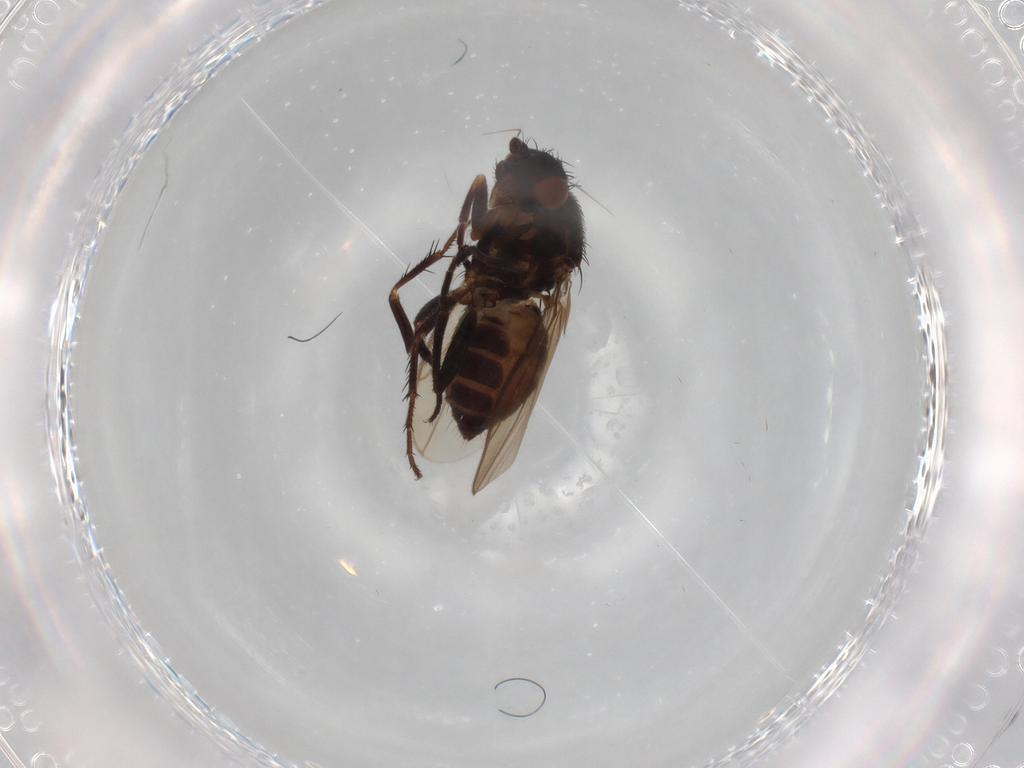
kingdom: Animalia
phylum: Arthropoda
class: Insecta
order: Diptera
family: Sphaeroceridae
